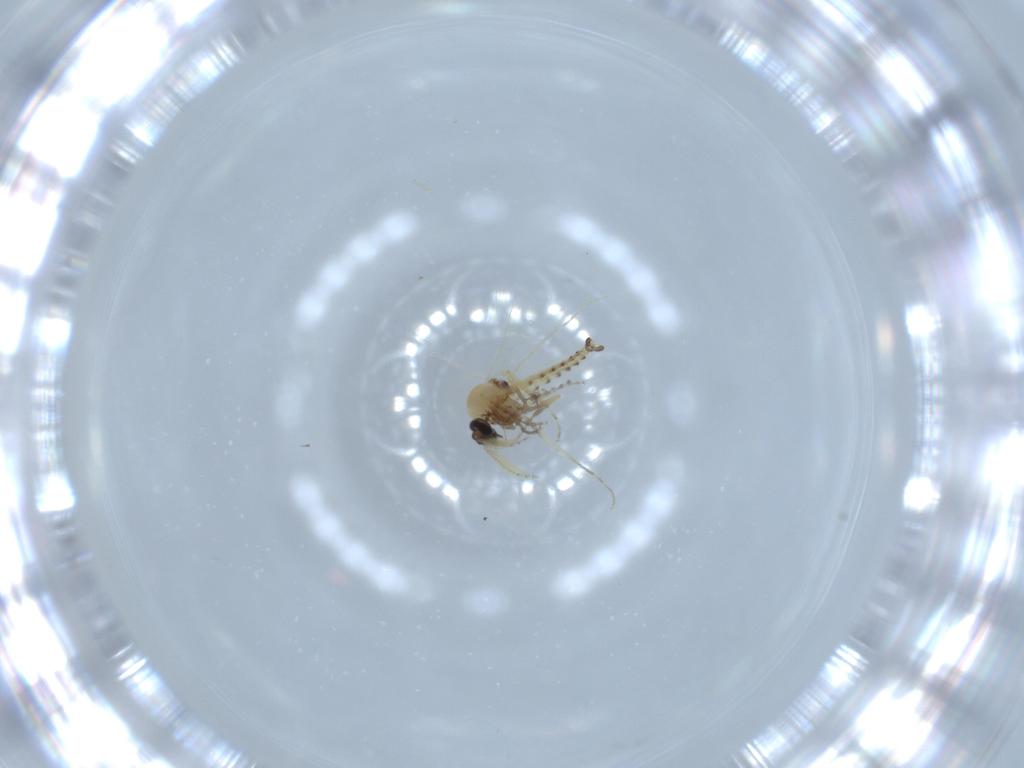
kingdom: Animalia
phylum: Arthropoda
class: Insecta
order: Diptera
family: Ceratopogonidae
